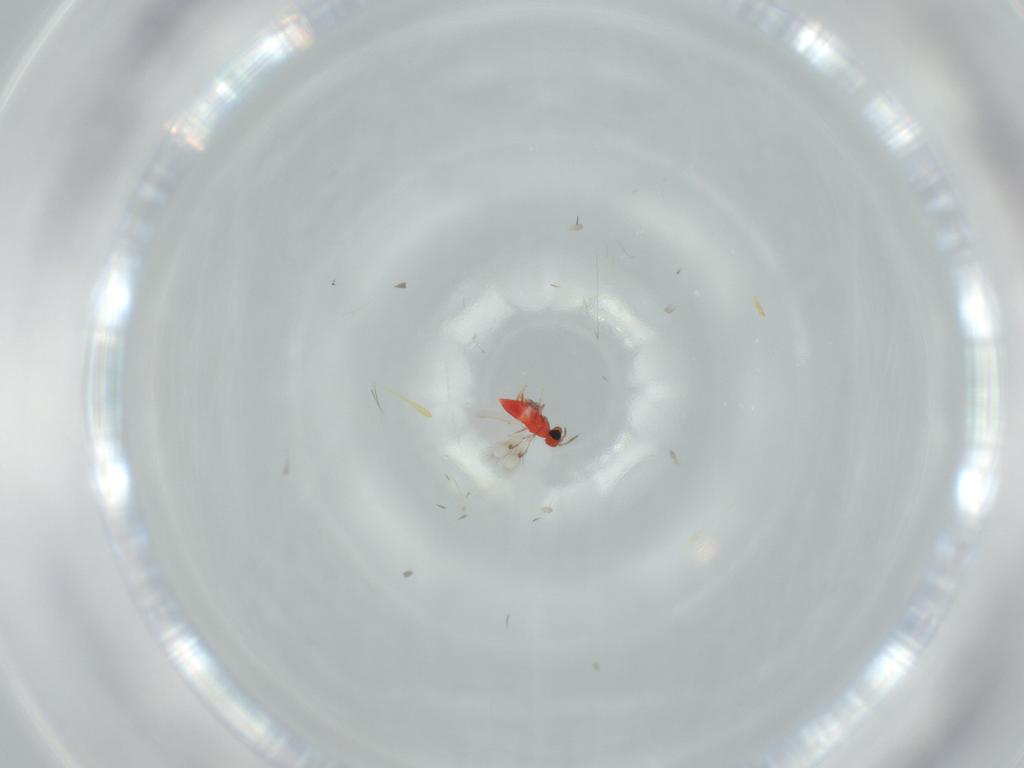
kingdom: Animalia
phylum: Arthropoda
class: Insecta
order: Hymenoptera
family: Trichogrammatidae
